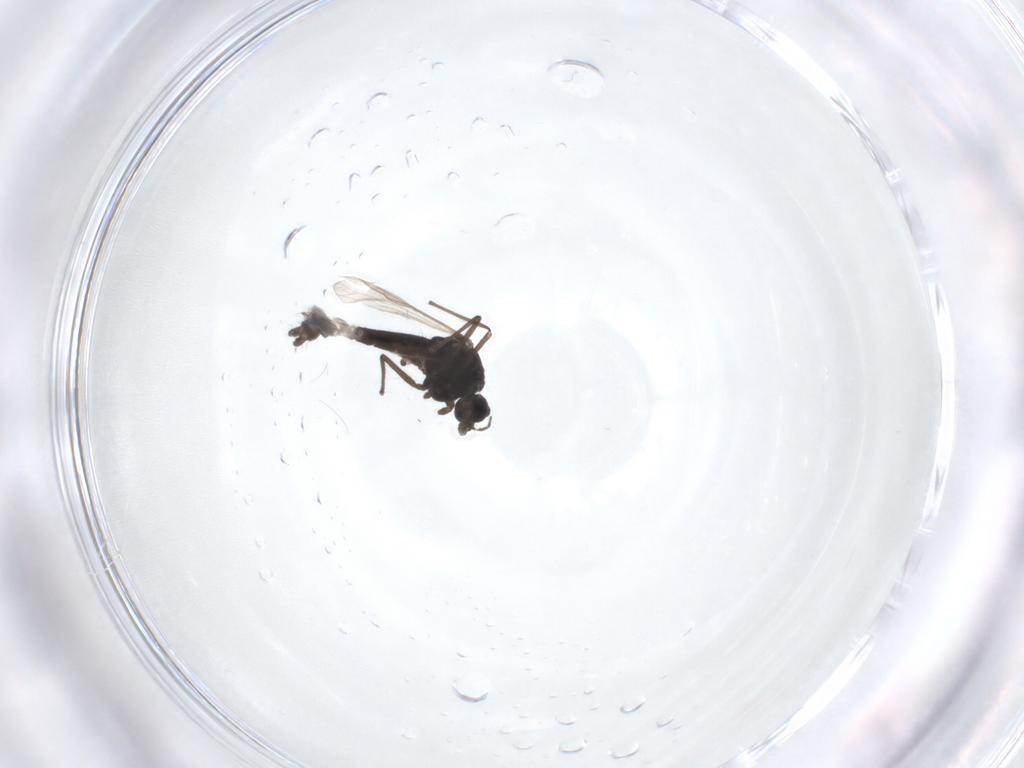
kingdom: Animalia
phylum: Arthropoda
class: Insecta
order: Diptera
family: Chironomidae
